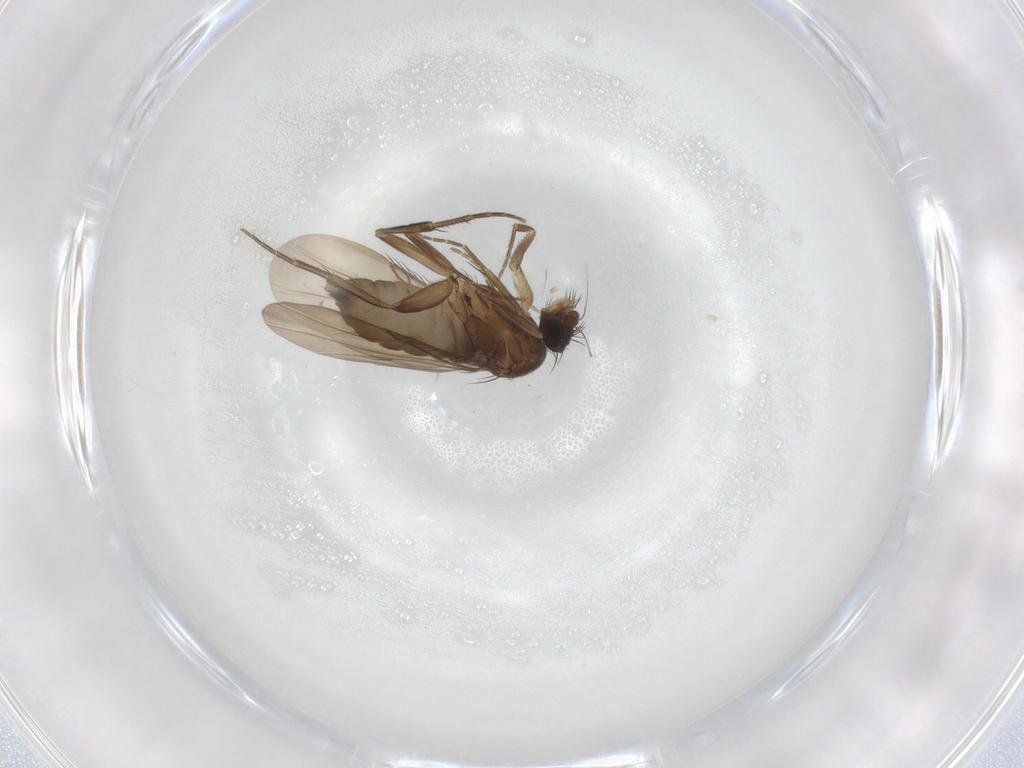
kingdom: Animalia
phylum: Arthropoda
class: Insecta
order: Diptera
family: Phoridae
